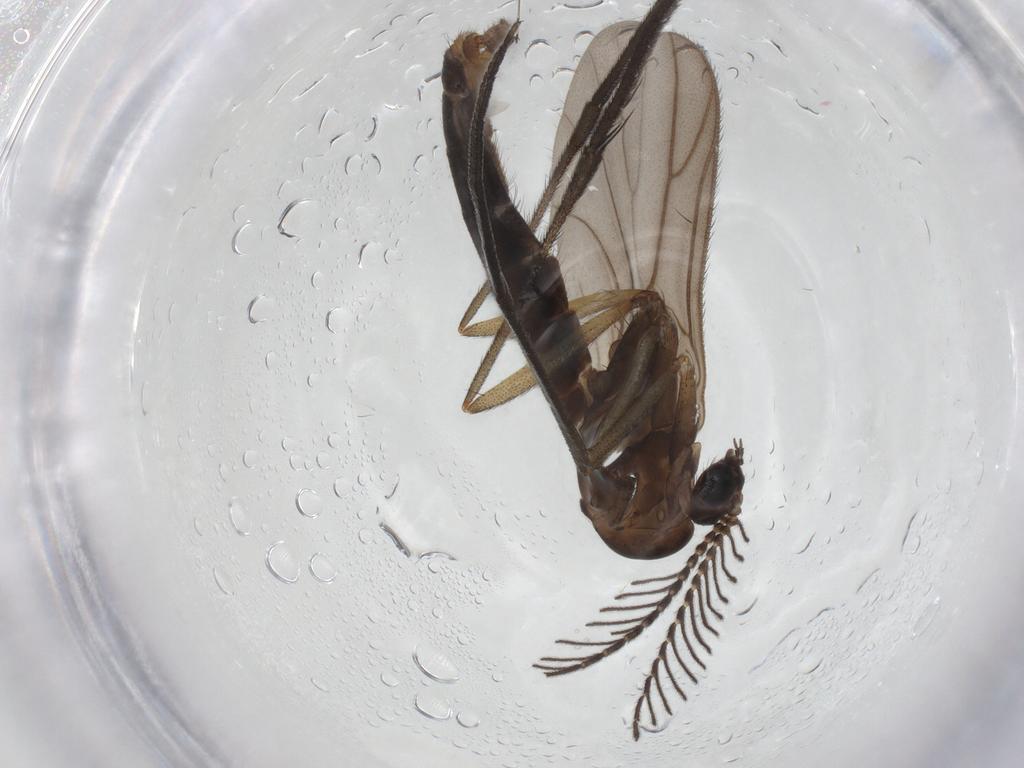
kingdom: Animalia
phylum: Arthropoda
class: Insecta
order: Diptera
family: Ditomyiidae
